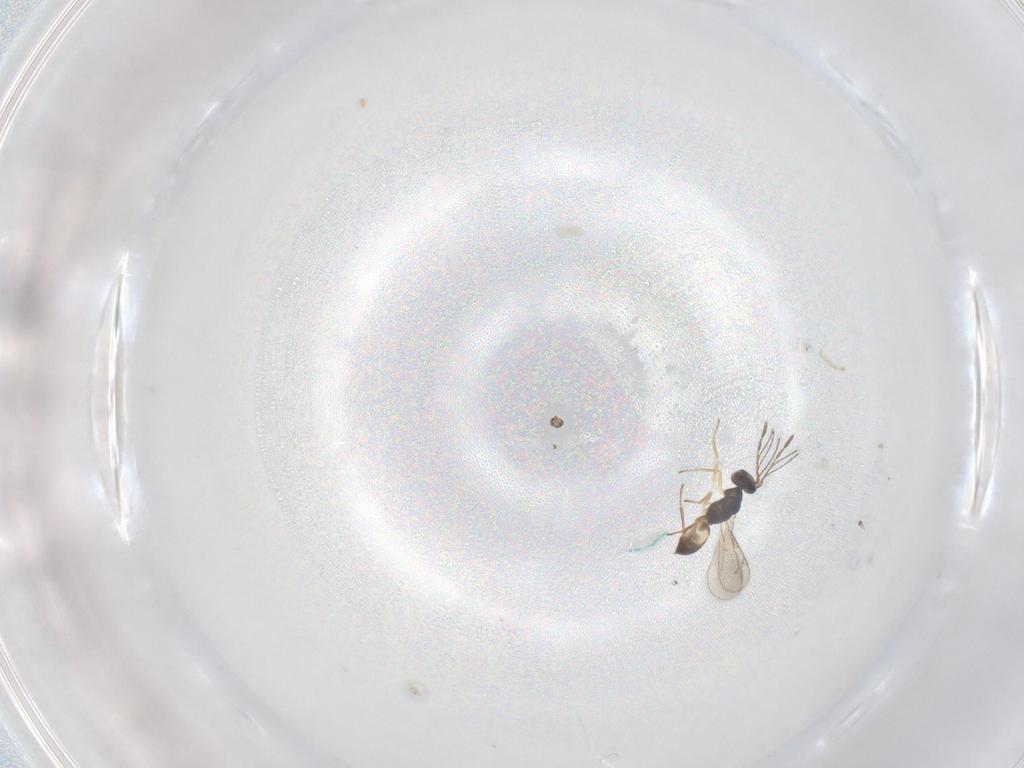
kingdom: Animalia
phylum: Arthropoda
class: Insecta
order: Hymenoptera
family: Eulophidae
